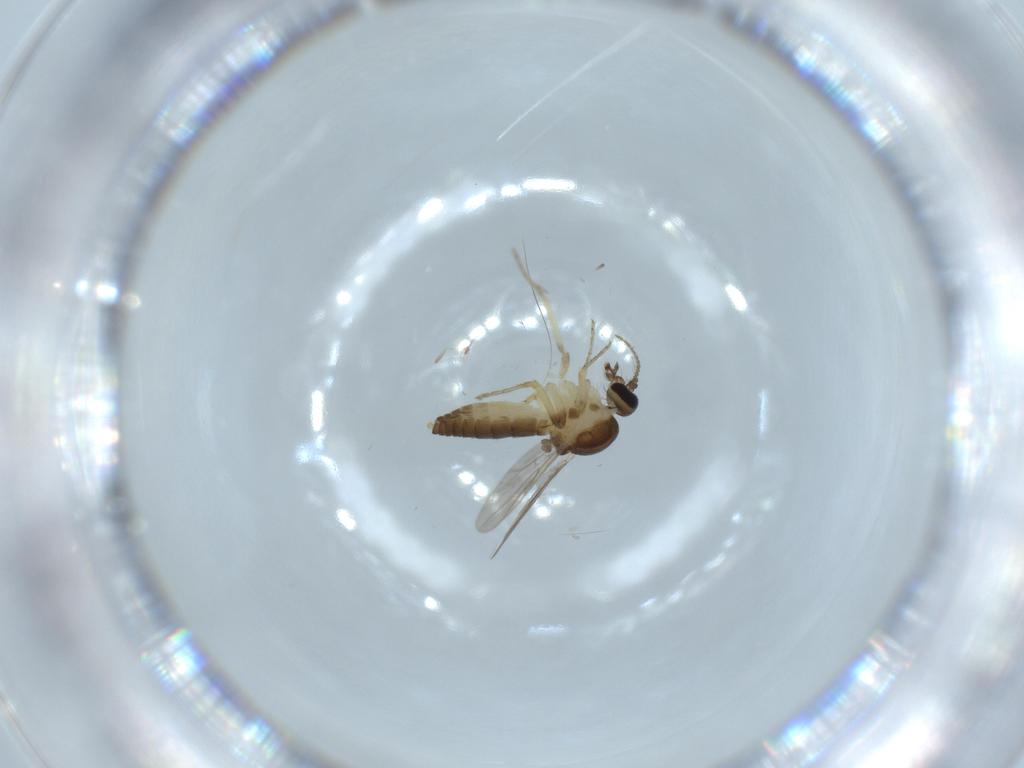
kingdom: Animalia
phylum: Arthropoda
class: Insecta
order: Diptera
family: Ceratopogonidae
